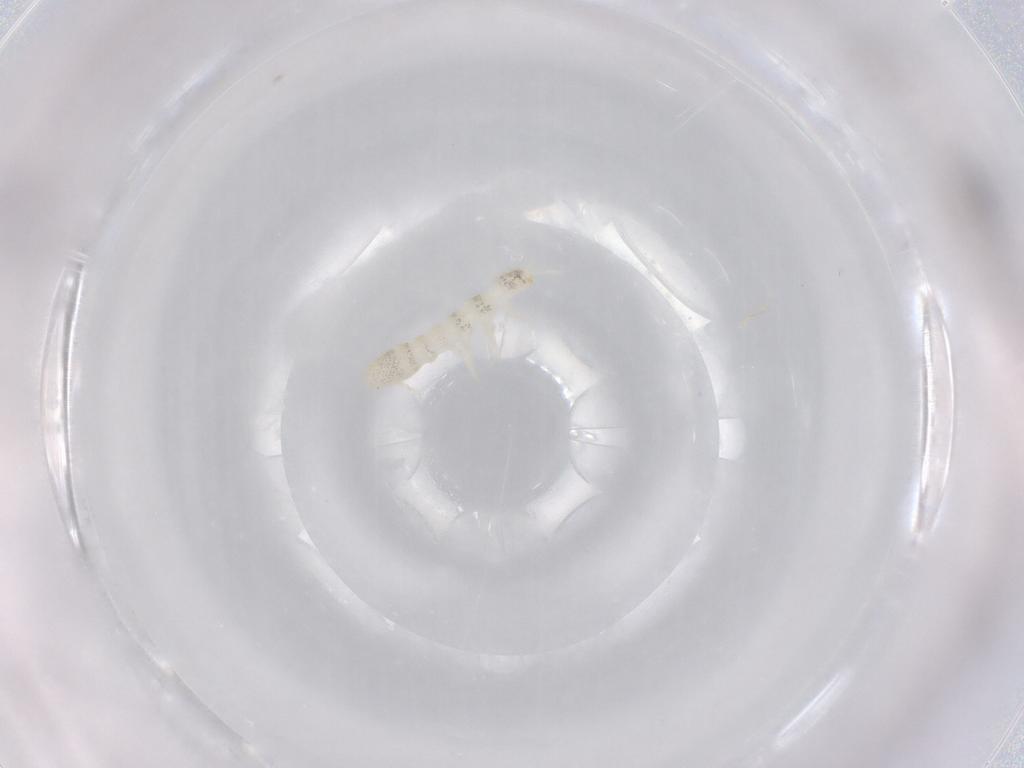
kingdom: Animalia
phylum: Arthropoda
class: Collembola
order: Entomobryomorpha
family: Isotomidae
